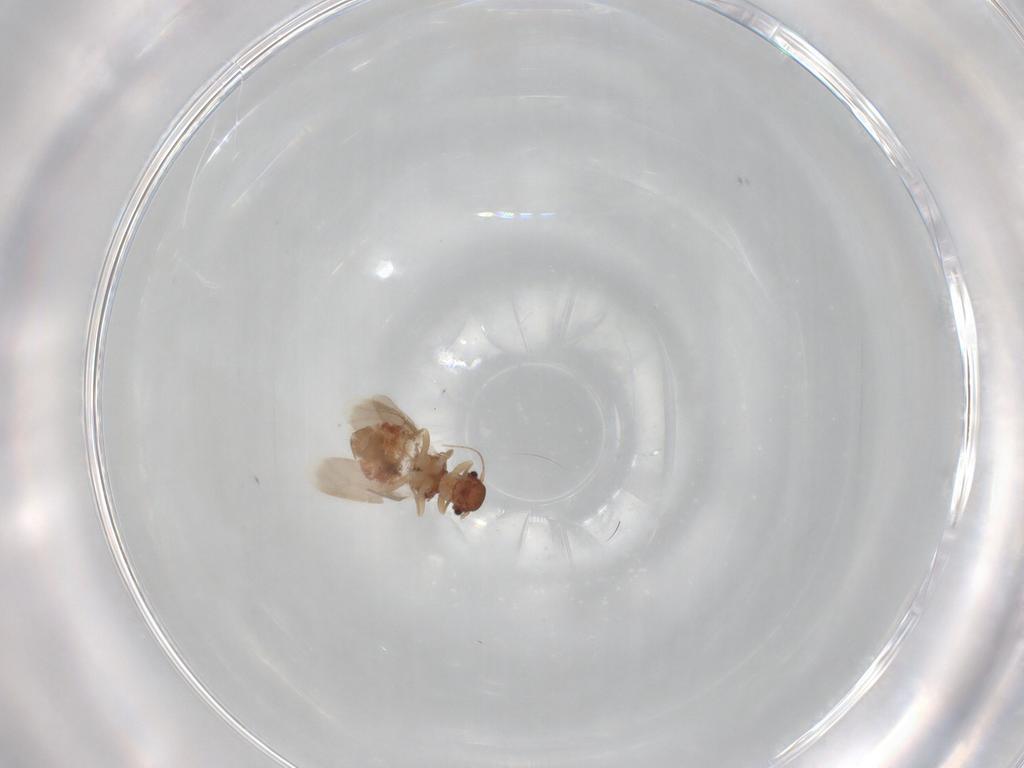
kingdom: Animalia
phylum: Arthropoda
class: Insecta
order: Psocodea
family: Archipsocidae
